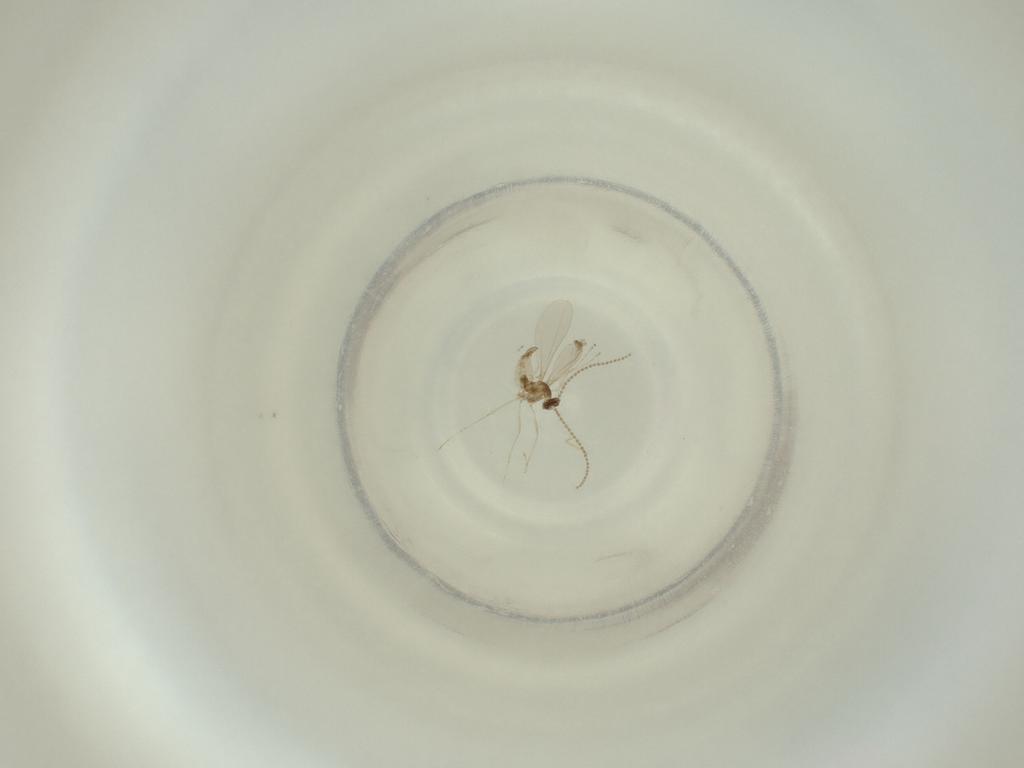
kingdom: Animalia
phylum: Arthropoda
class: Insecta
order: Diptera
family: Cecidomyiidae
